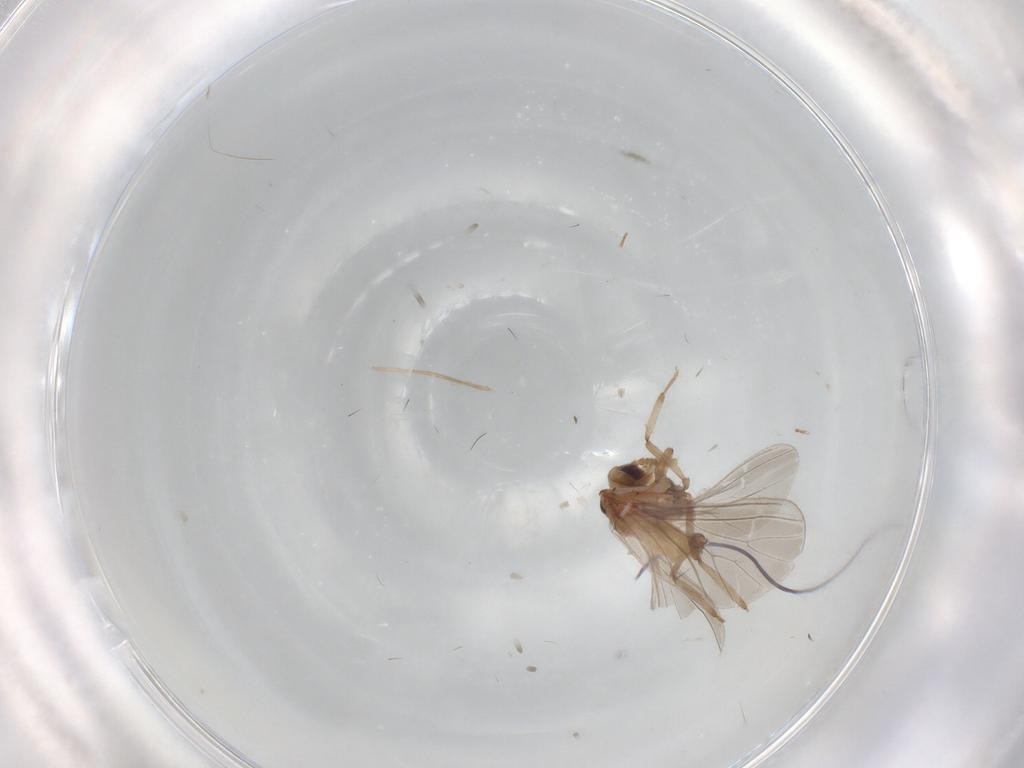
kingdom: Animalia
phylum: Arthropoda
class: Insecta
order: Neuroptera
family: Coniopterygidae
